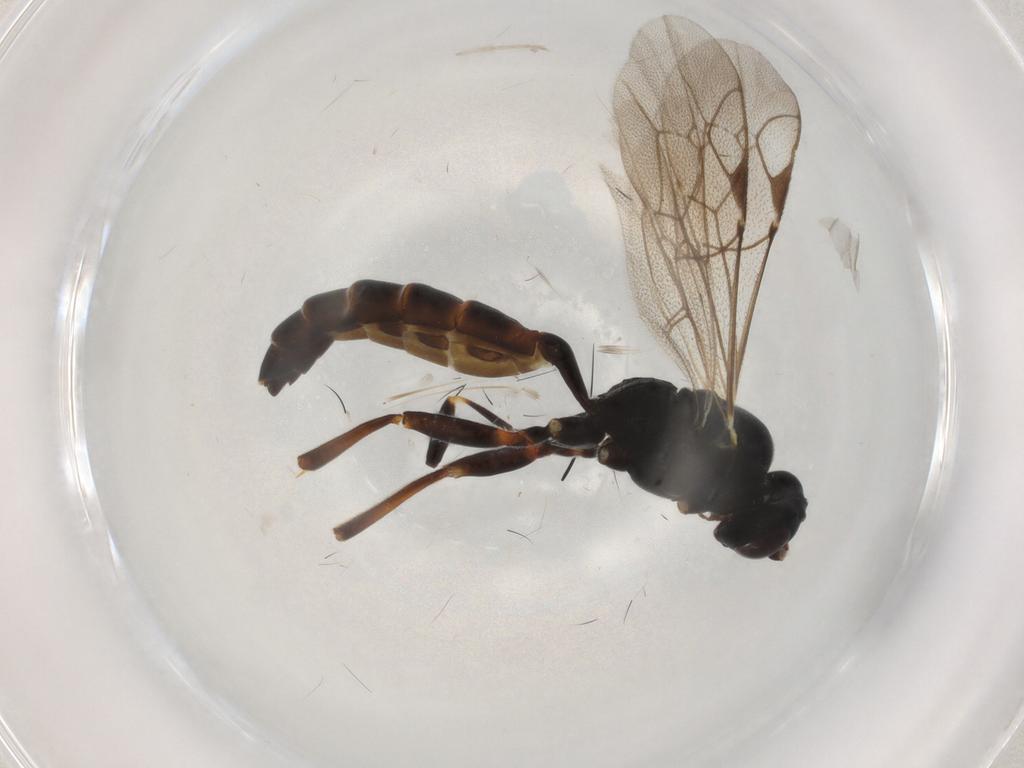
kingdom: Animalia
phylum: Arthropoda
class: Insecta
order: Hymenoptera
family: Ichneumonidae
